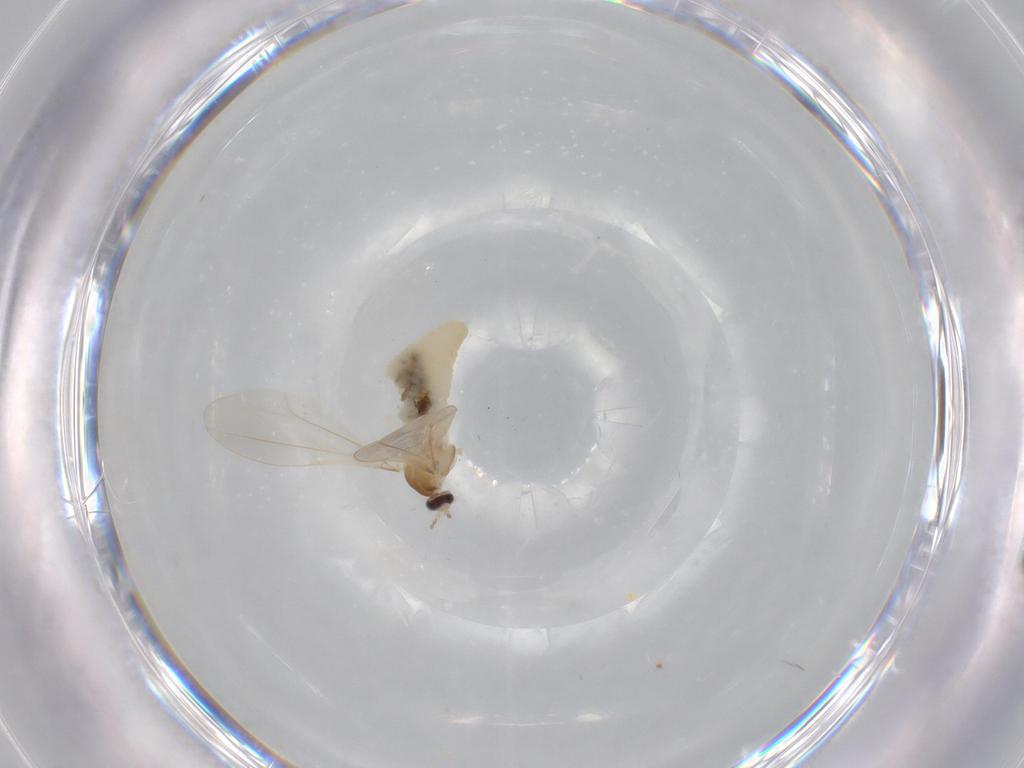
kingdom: Animalia
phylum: Arthropoda
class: Insecta
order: Diptera
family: Cecidomyiidae
